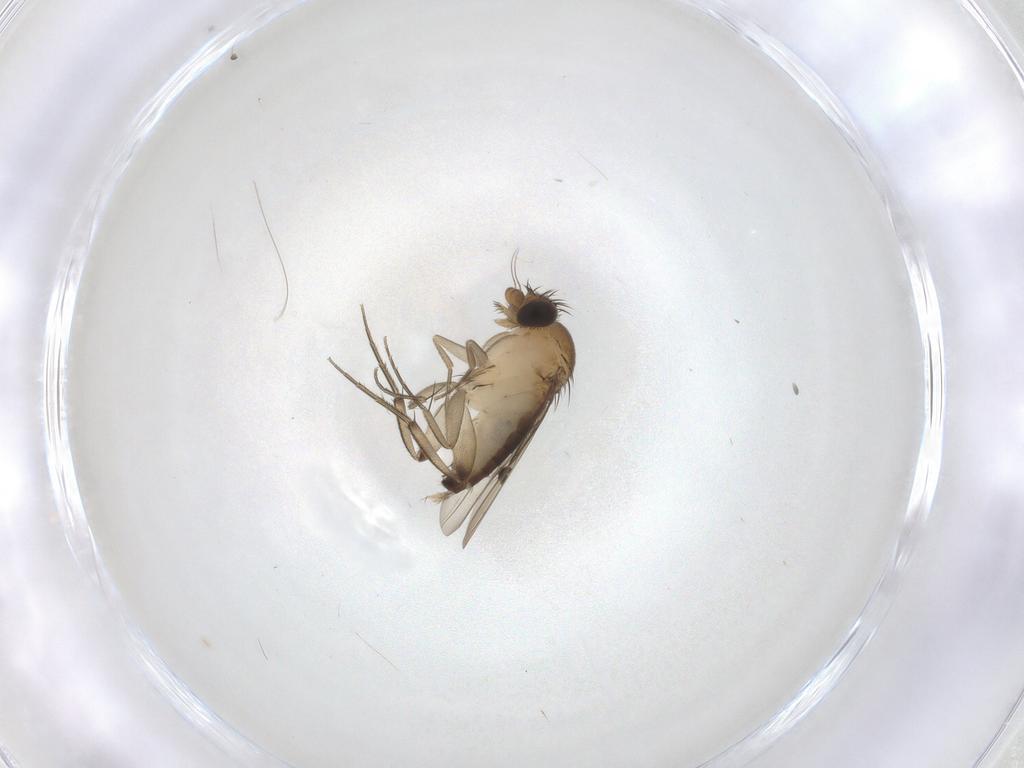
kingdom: Animalia
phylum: Arthropoda
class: Insecta
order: Diptera
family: Phoridae
